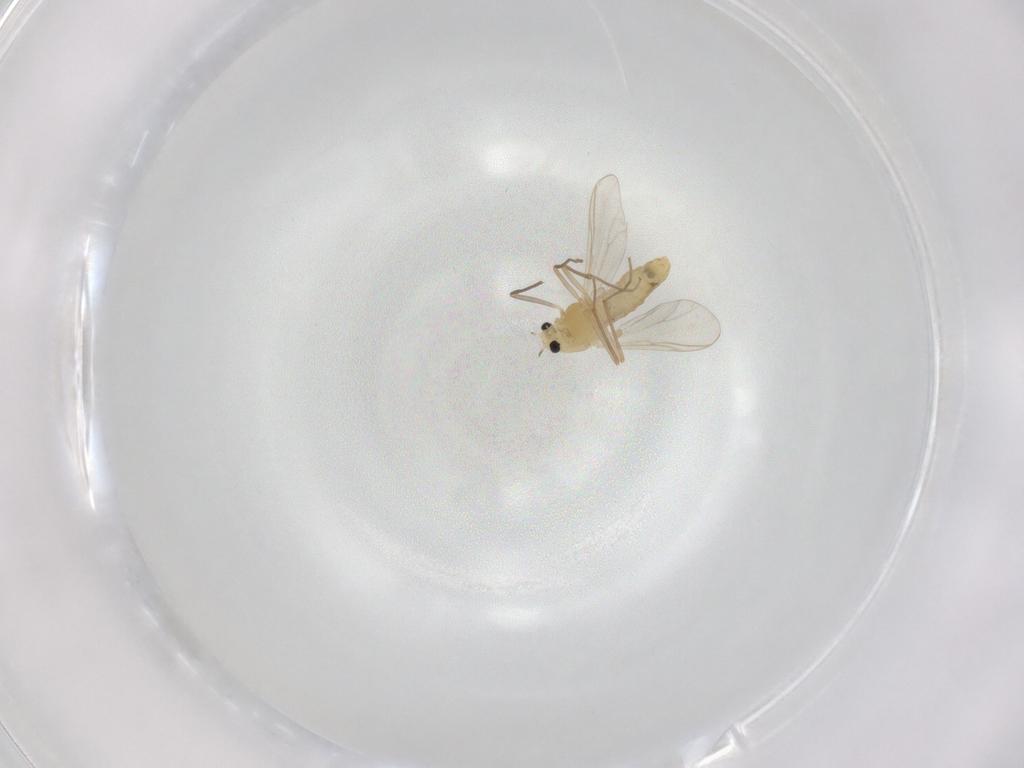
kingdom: Animalia
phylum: Arthropoda
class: Insecta
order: Diptera
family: Chironomidae
